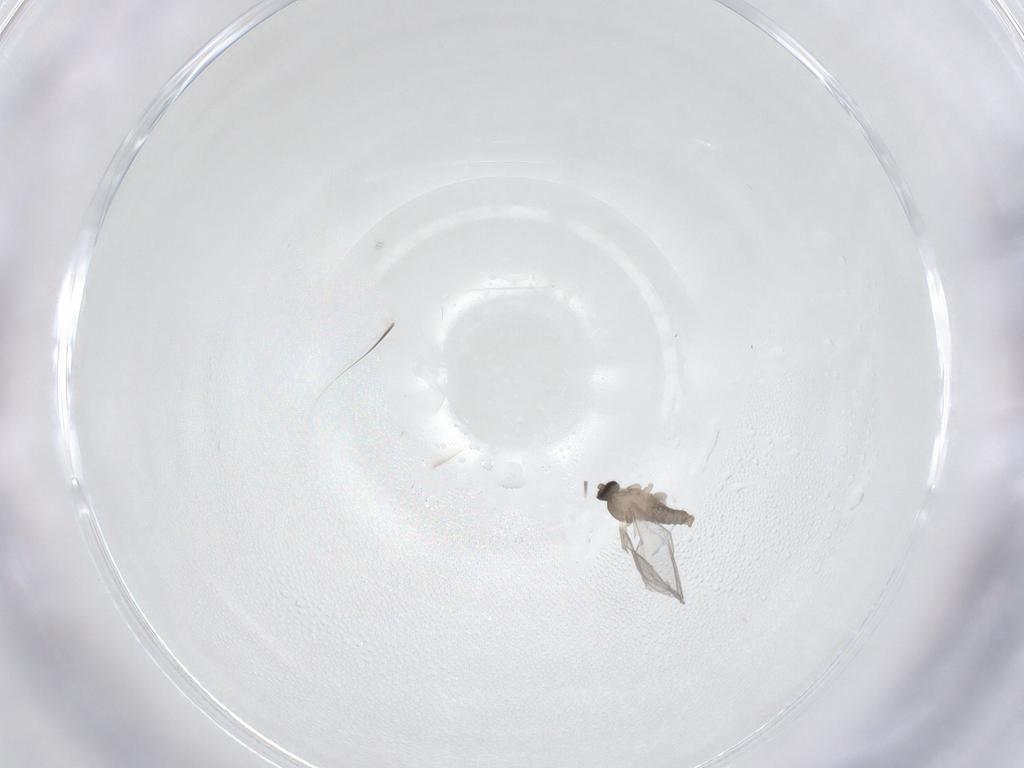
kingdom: Animalia
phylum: Arthropoda
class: Insecta
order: Diptera
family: Cecidomyiidae
